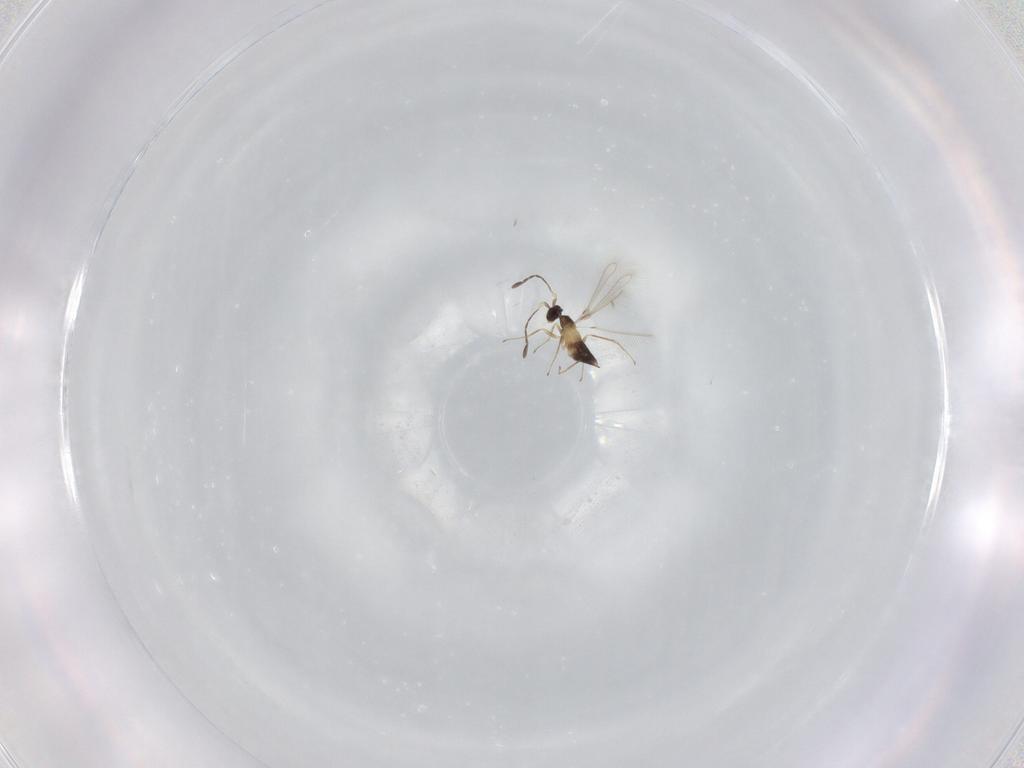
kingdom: Animalia
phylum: Arthropoda
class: Insecta
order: Hymenoptera
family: Mymaridae
